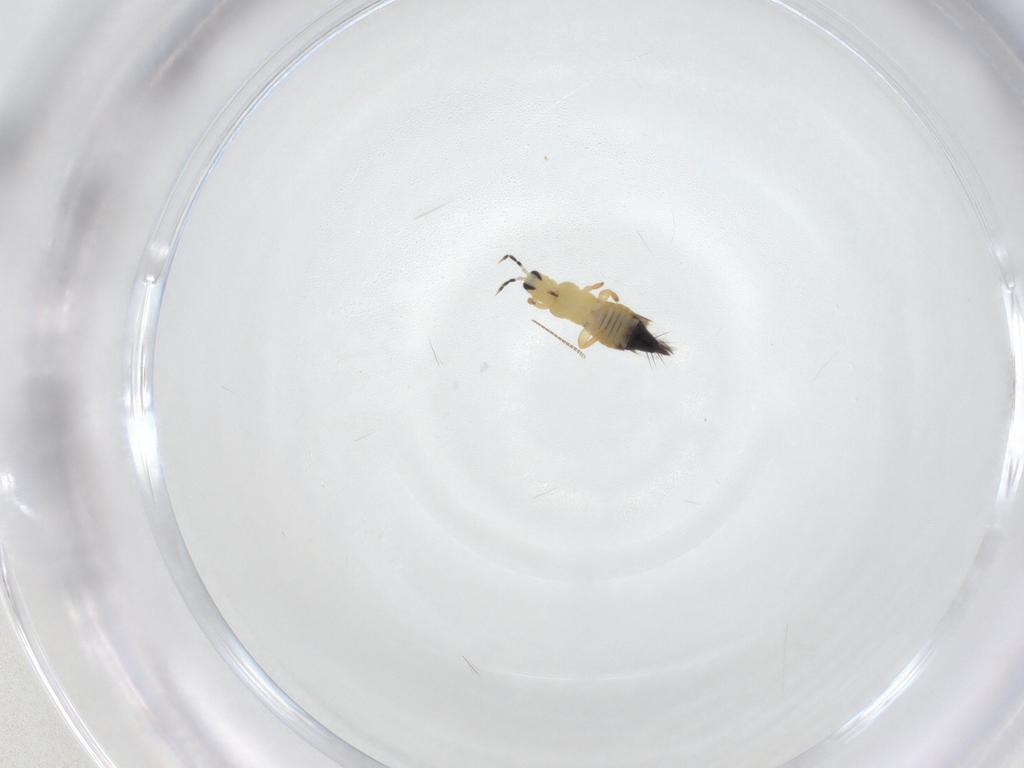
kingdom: Animalia
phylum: Arthropoda
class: Insecta
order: Thysanoptera
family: Aeolothripidae
